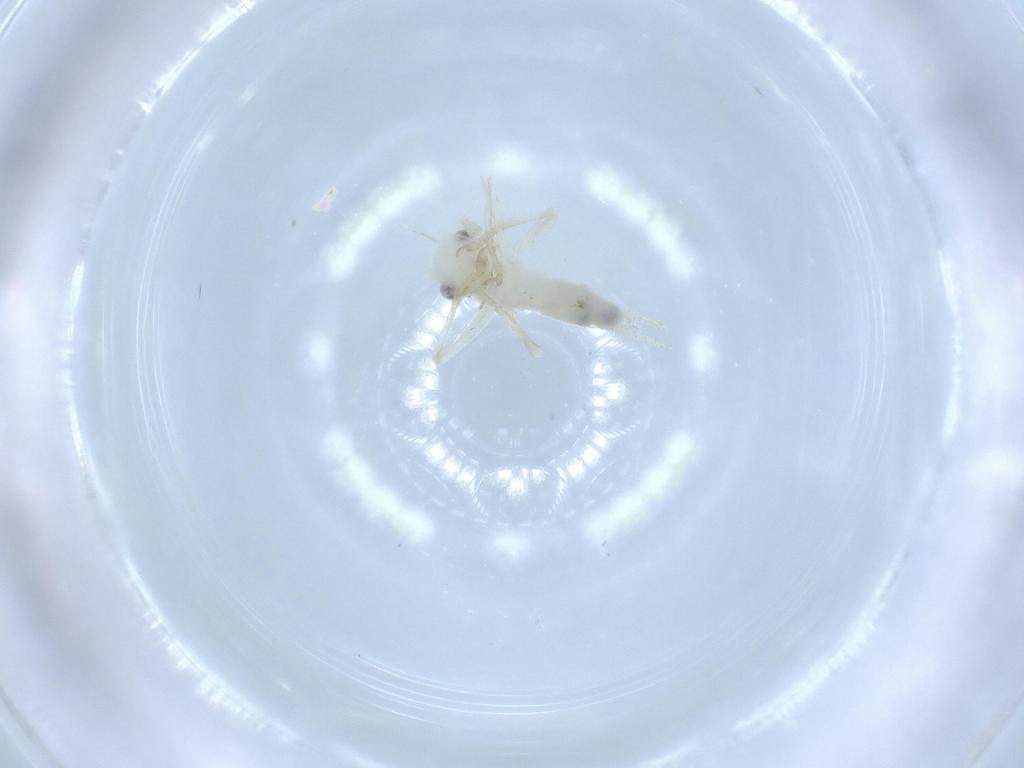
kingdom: Animalia
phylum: Arthropoda
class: Insecta
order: Orthoptera
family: Trigonidiidae
